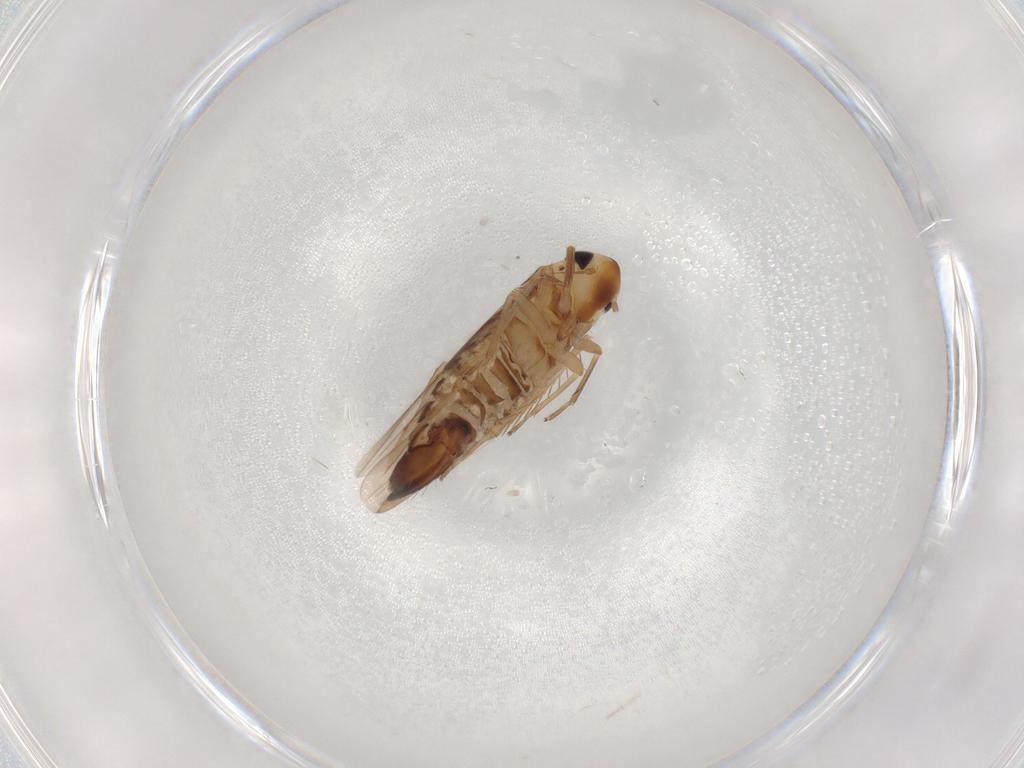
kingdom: Animalia
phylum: Arthropoda
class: Insecta
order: Hemiptera
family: Cicadellidae
